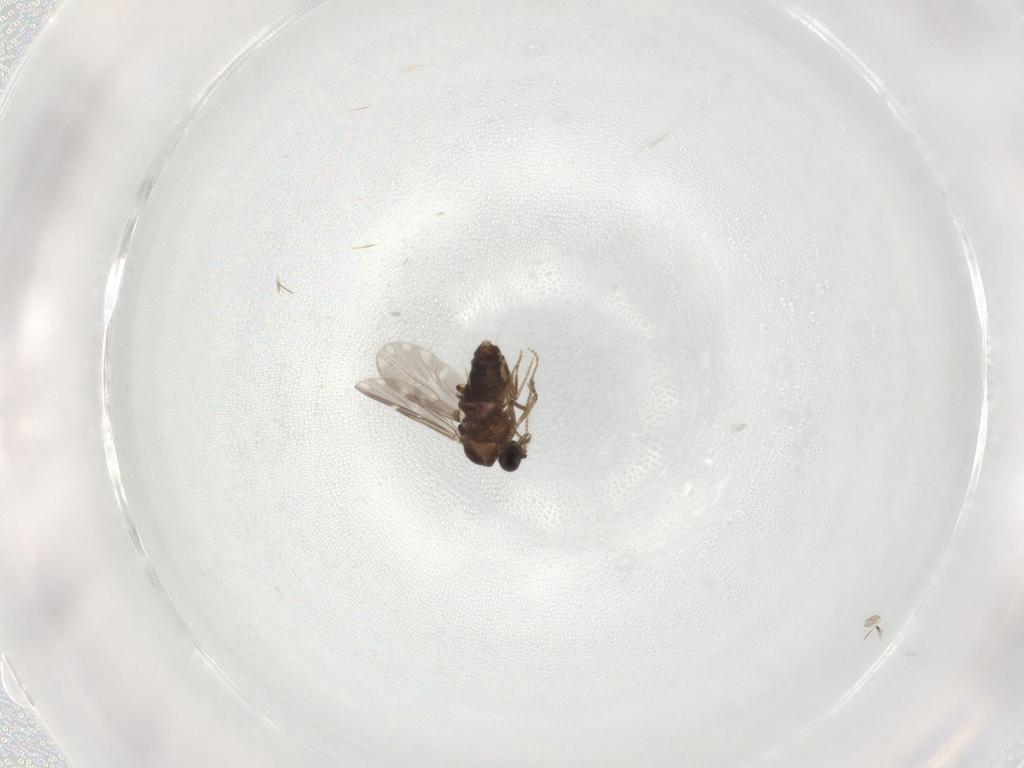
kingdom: Animalia
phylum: Arthropoda
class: Insecta
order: Diptera
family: Ceratopogonidae
